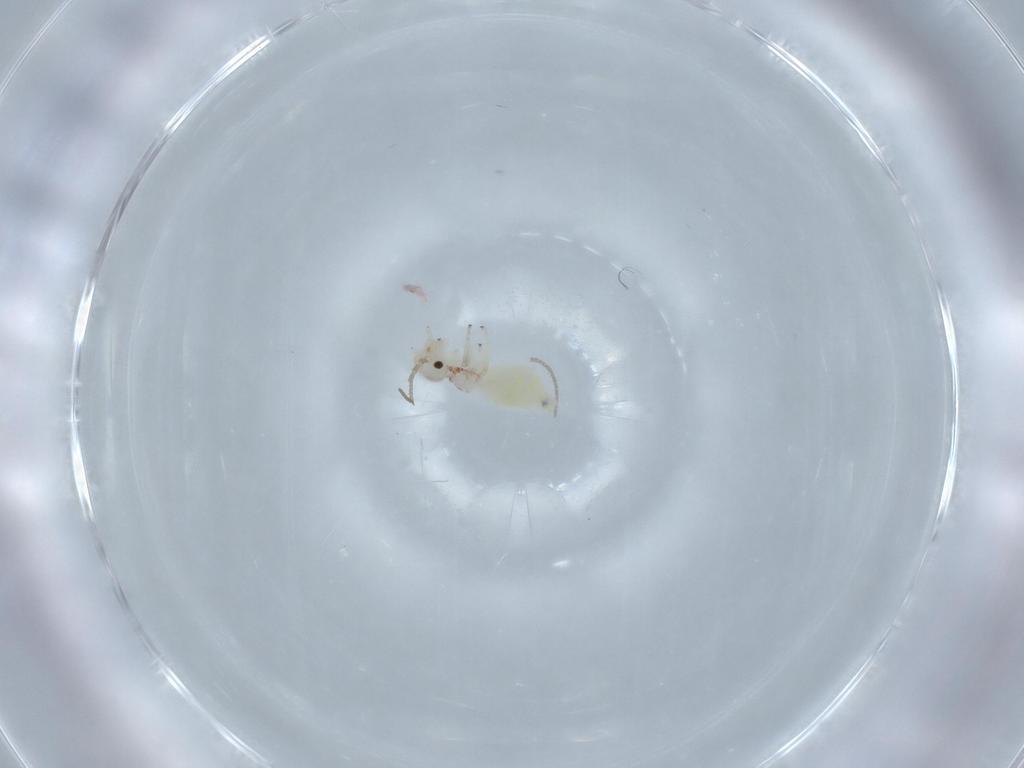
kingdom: Animalia
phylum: Arthropoda
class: Insecta
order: Psocodea
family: Caeciliusidae
